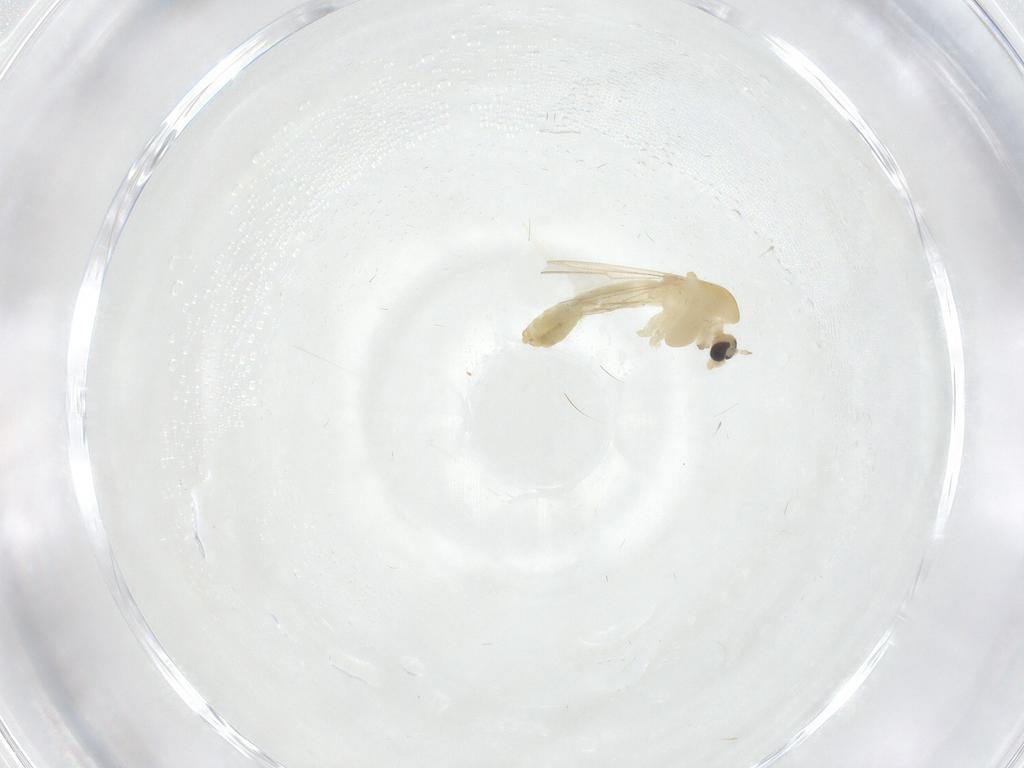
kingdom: Animalia
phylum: Arthropoda
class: Insecta
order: Diptera
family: Chironomidae
